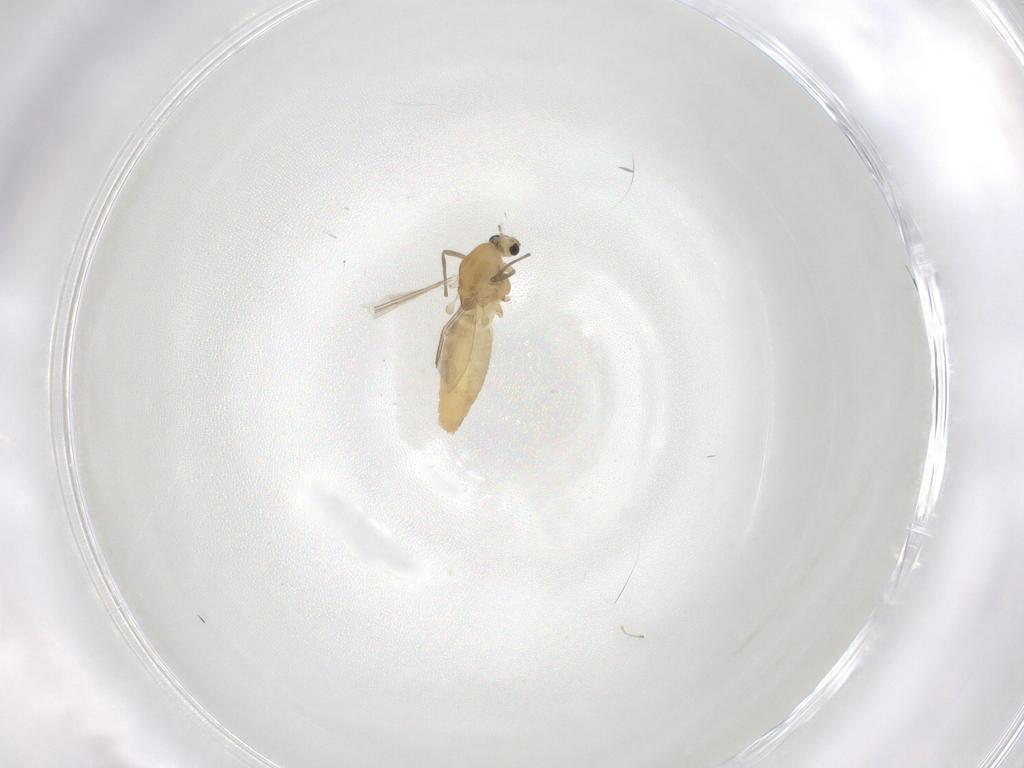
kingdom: Animalia
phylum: Arthropoda
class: Insecta
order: Diptera
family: Chironomidae
